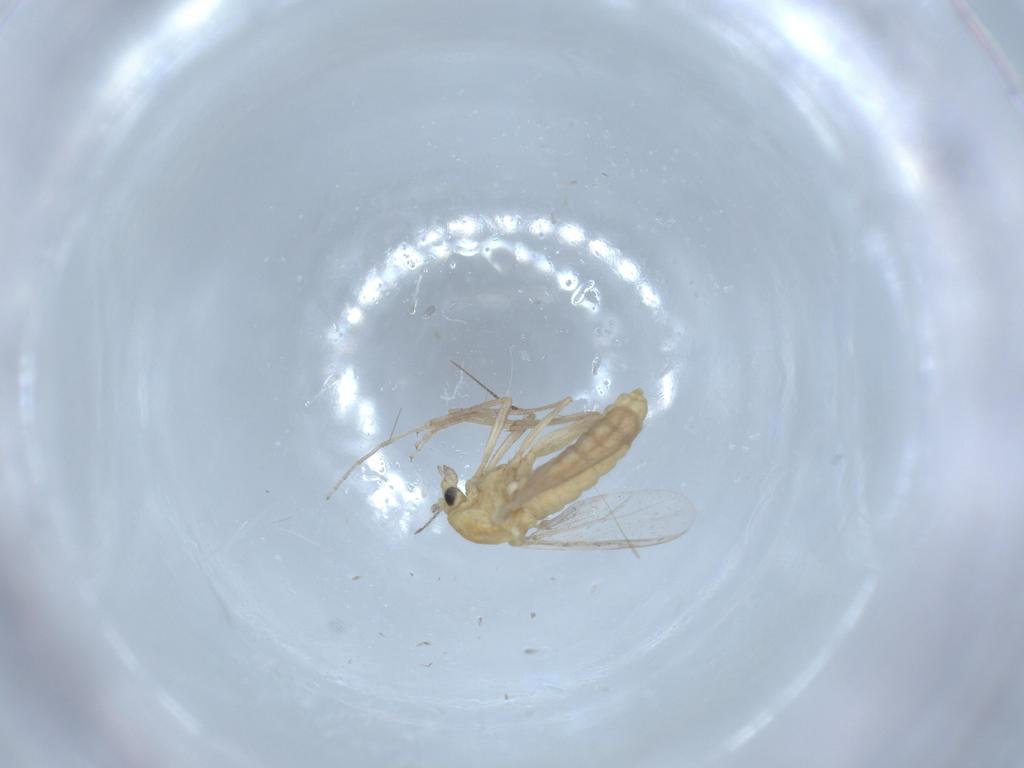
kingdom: Animalia
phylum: Arthropoda
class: Insecta
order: Diptera
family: Chironomidae
